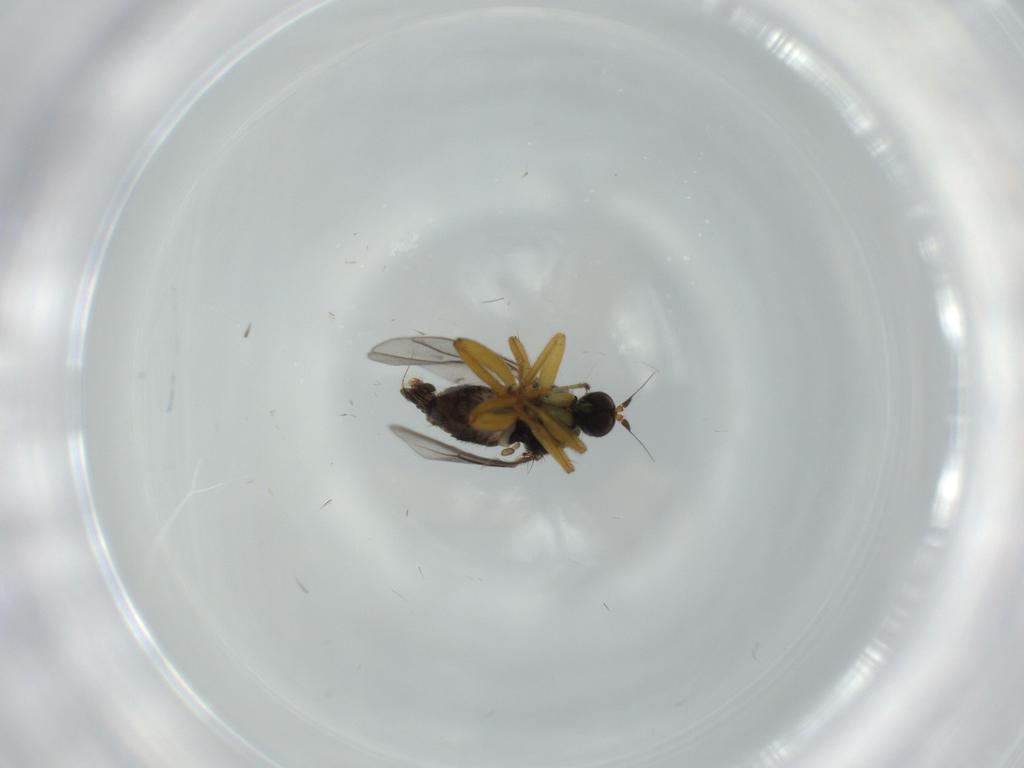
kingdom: Animalia
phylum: Arthropoda
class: Insecta
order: Diptera
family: Hybotidae
